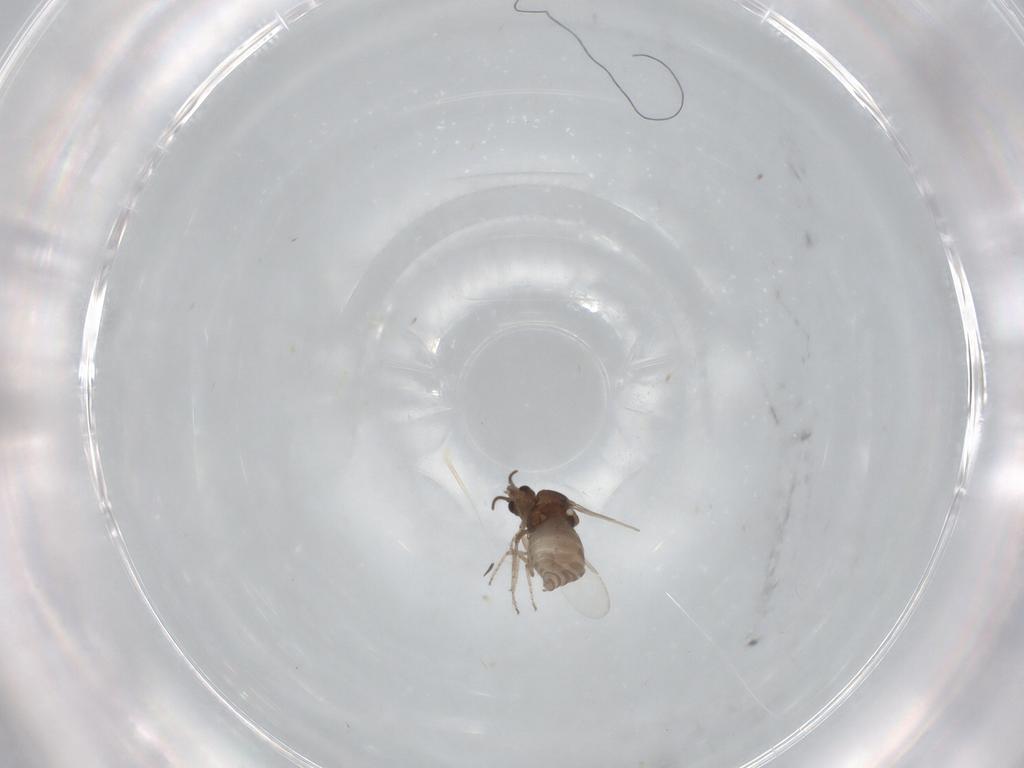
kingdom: Animalia
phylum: Arthropoda
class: Insecta
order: Diptera
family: Ceratopogonidae
